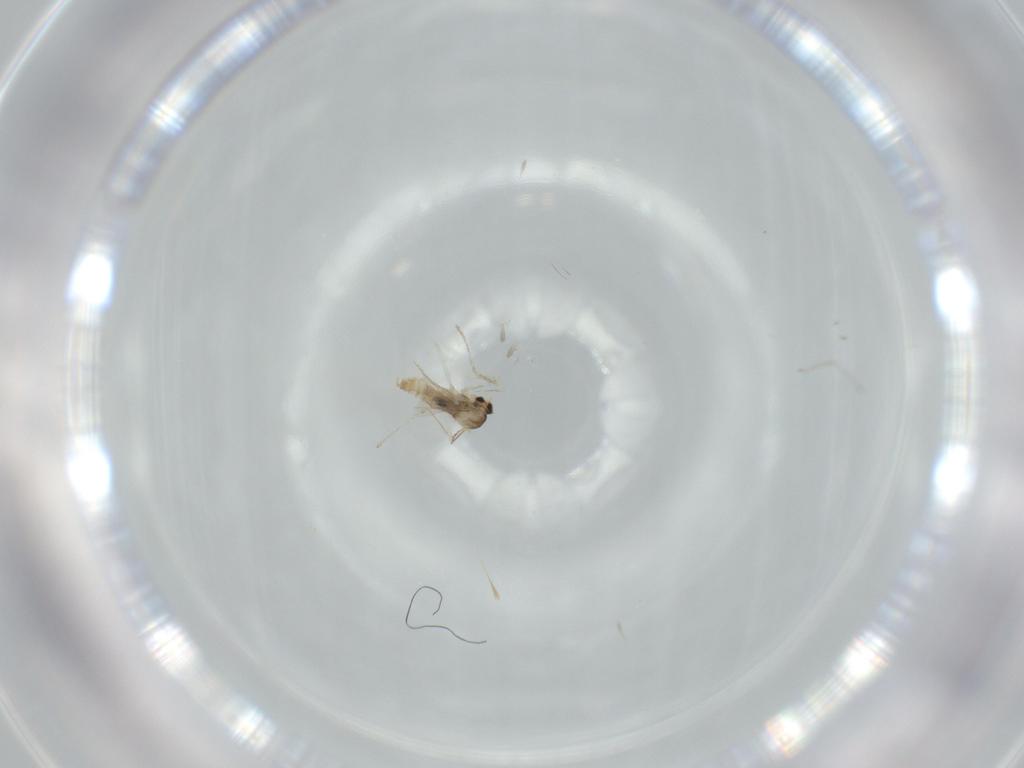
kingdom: Animalia
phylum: Arthropoda
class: Insecta
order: Diptera
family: Cecidomyiidae
